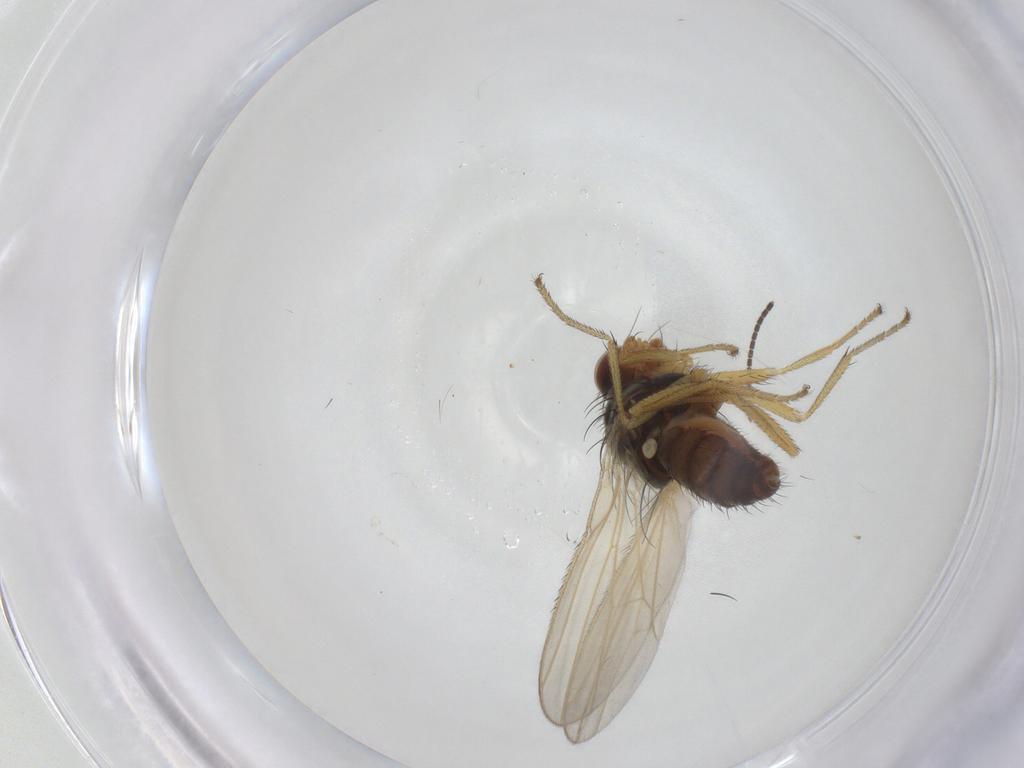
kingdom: Animalia
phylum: Arthropoda
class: Insecta
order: Diptera
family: Heleomyzidae
